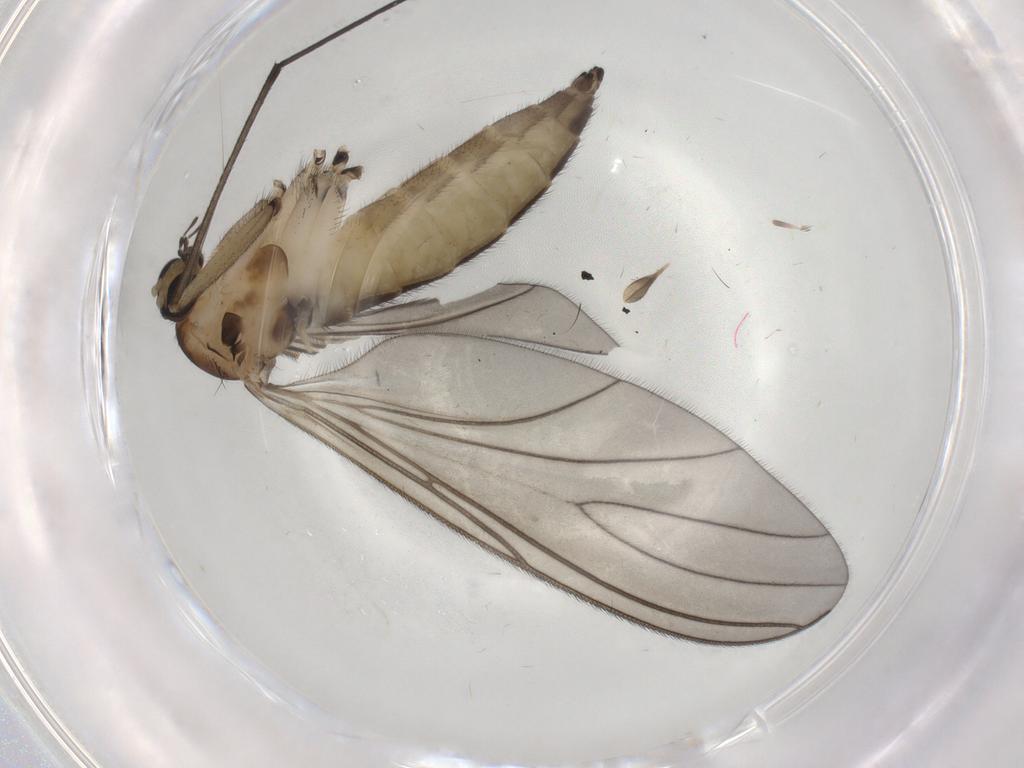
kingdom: Animalia
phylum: Arthropoda
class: Insecta
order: Diptera
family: Sciaridae
